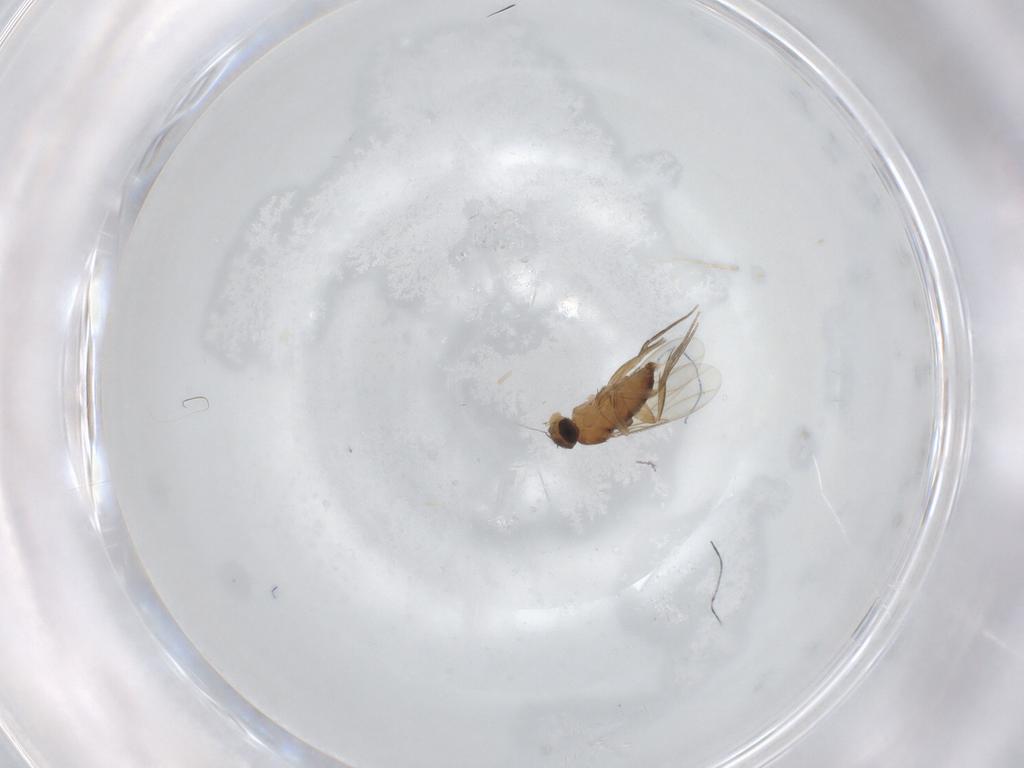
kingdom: Animalia
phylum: Arthropoda
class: Insecta
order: Diptera
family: Phoridae
